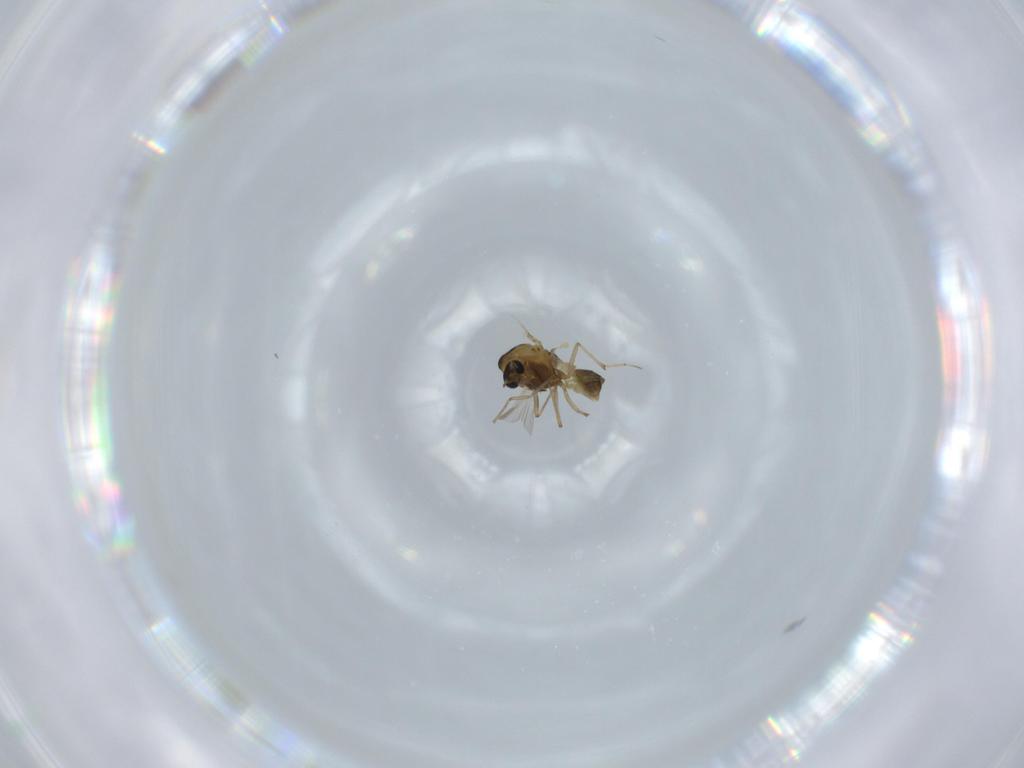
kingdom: Animalia
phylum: Arthropoda
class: Insecta
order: Diptera
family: Chironomidae
